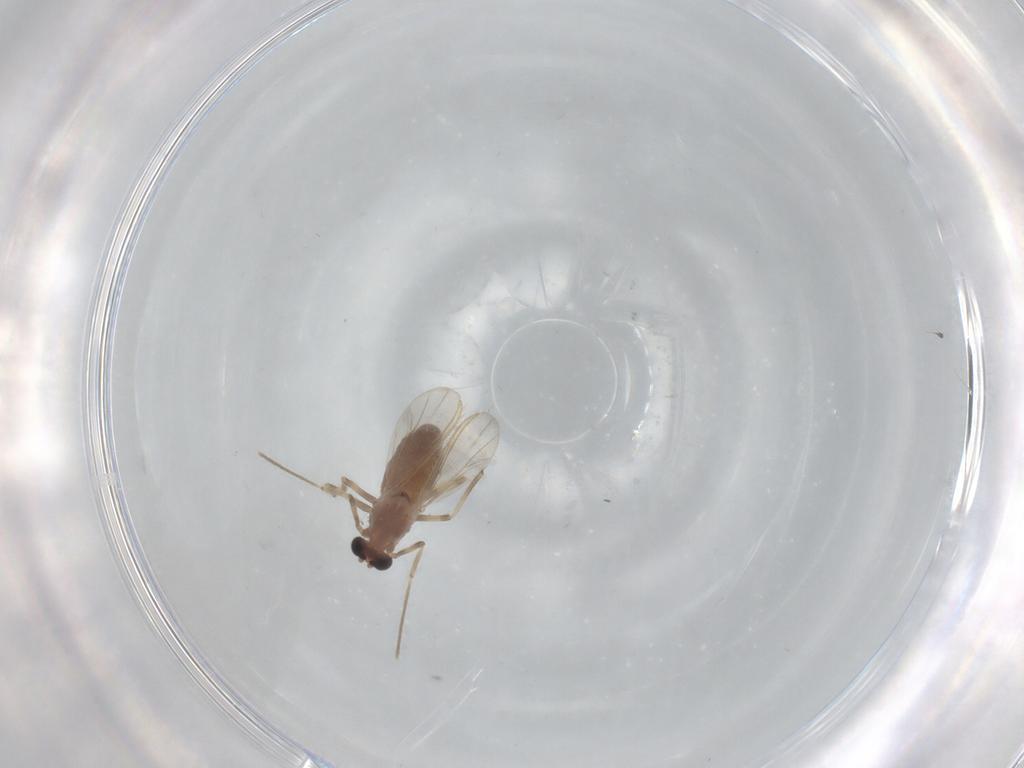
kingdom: Animalia
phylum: Arthropoda
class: Insecta
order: Diptera
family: Chironomidae
